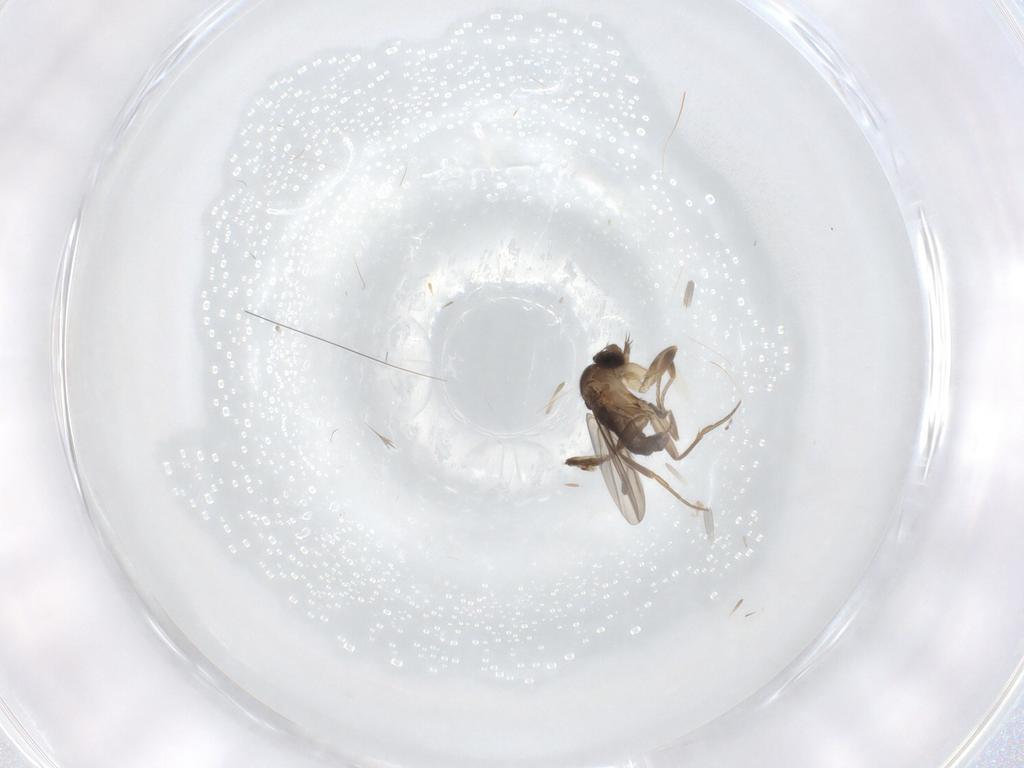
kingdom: Animalia
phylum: Arthropoda
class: Insecta
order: Diptera
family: Phoridae
